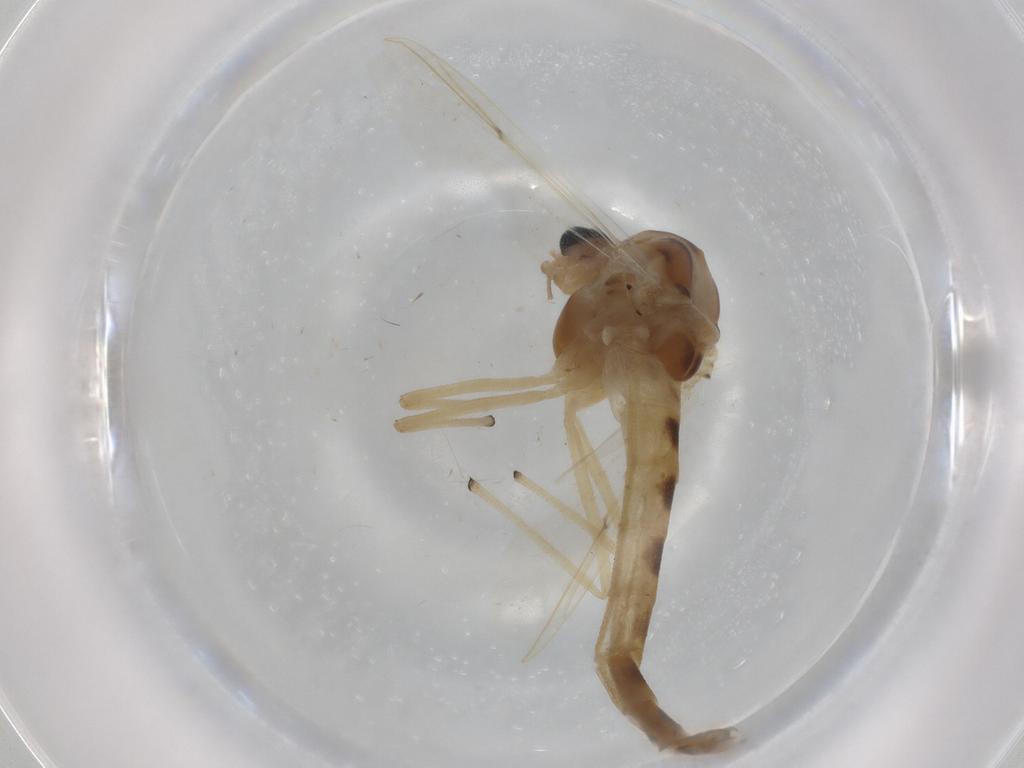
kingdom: Animalia
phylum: Arthropoda
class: Insecta
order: Diptera
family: Chironomidae
